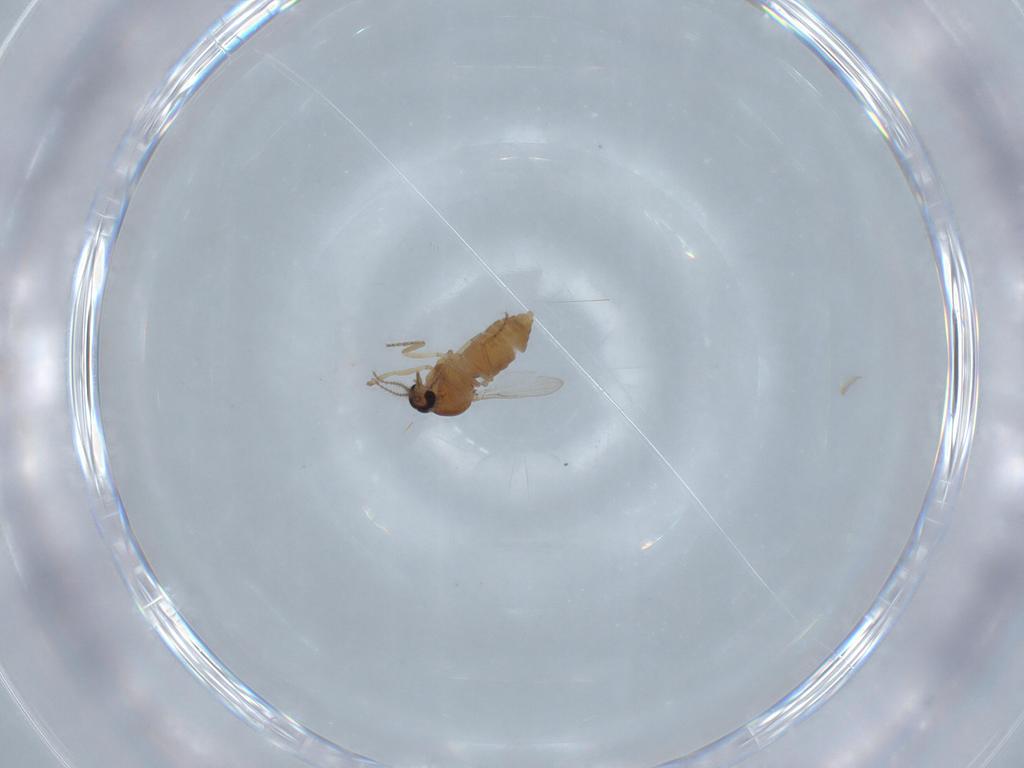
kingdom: Animalia
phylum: Arthropoda
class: Insecta
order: Diptera
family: Ceratopogonidae
